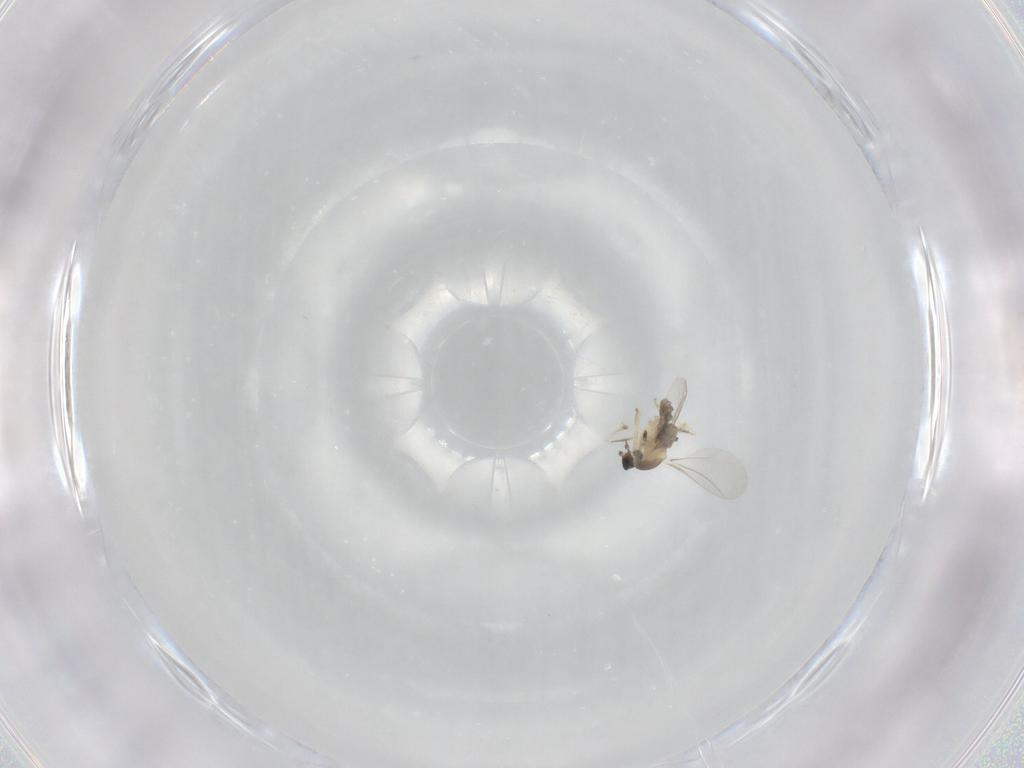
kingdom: Animalia
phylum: Arthropoda
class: Insecta
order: Diptera
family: Cecidomyiidae
